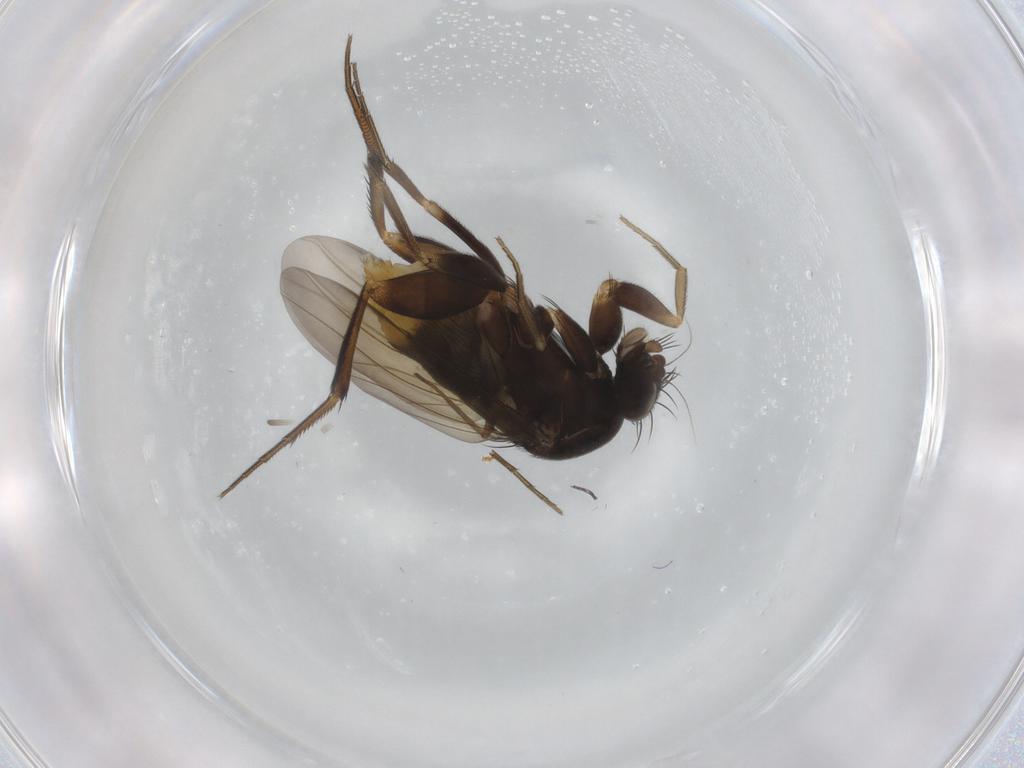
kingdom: Animalia
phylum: Arthropoda
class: Insecta
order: Diptera
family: Phoridae
